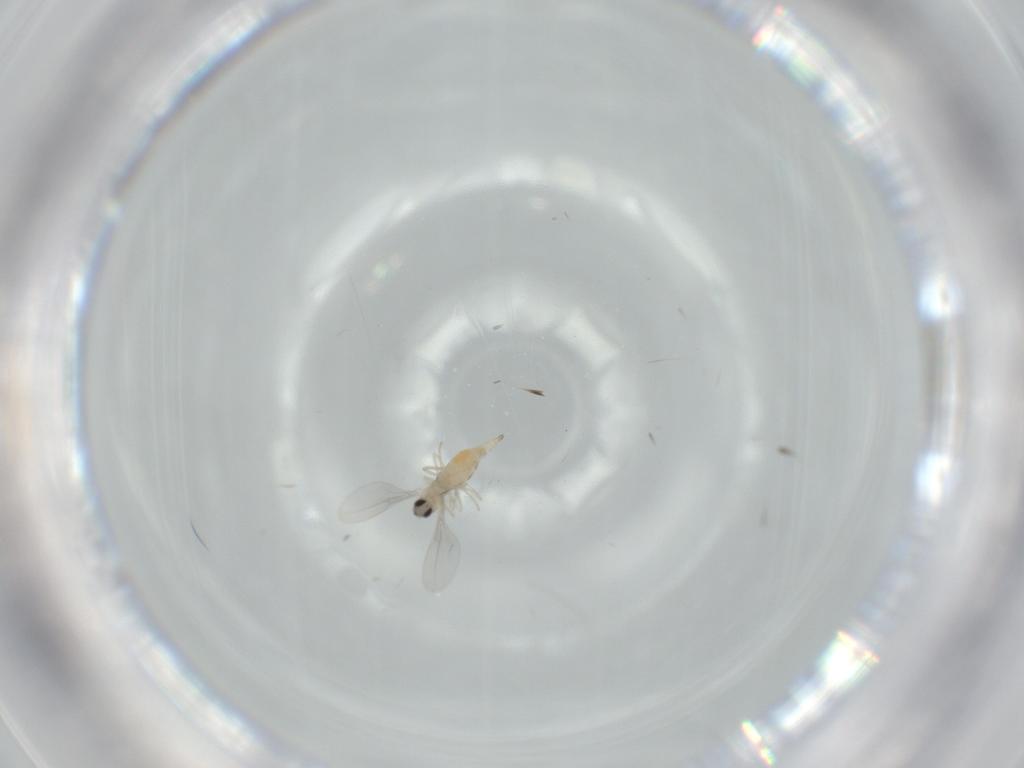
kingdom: Animalia
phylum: Arthropoda
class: Insecta
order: Diptera
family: Cecidomyiidae
